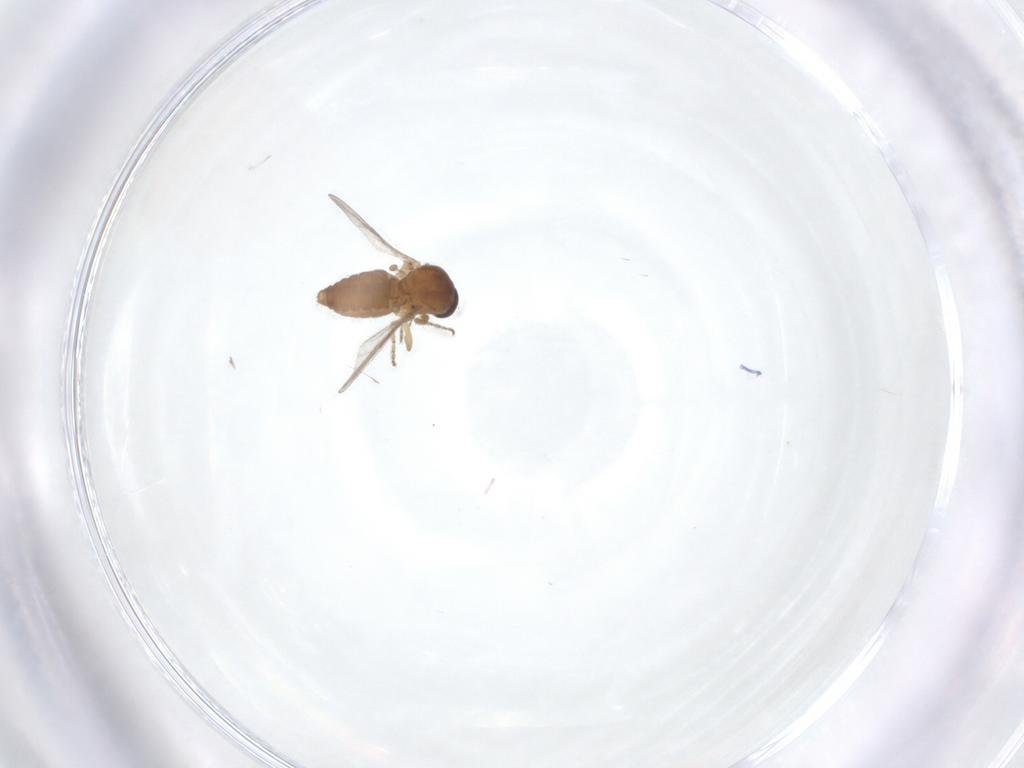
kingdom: Animalia
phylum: Arthropoda
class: Insecta
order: Diptera
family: Ceratopogonidae
